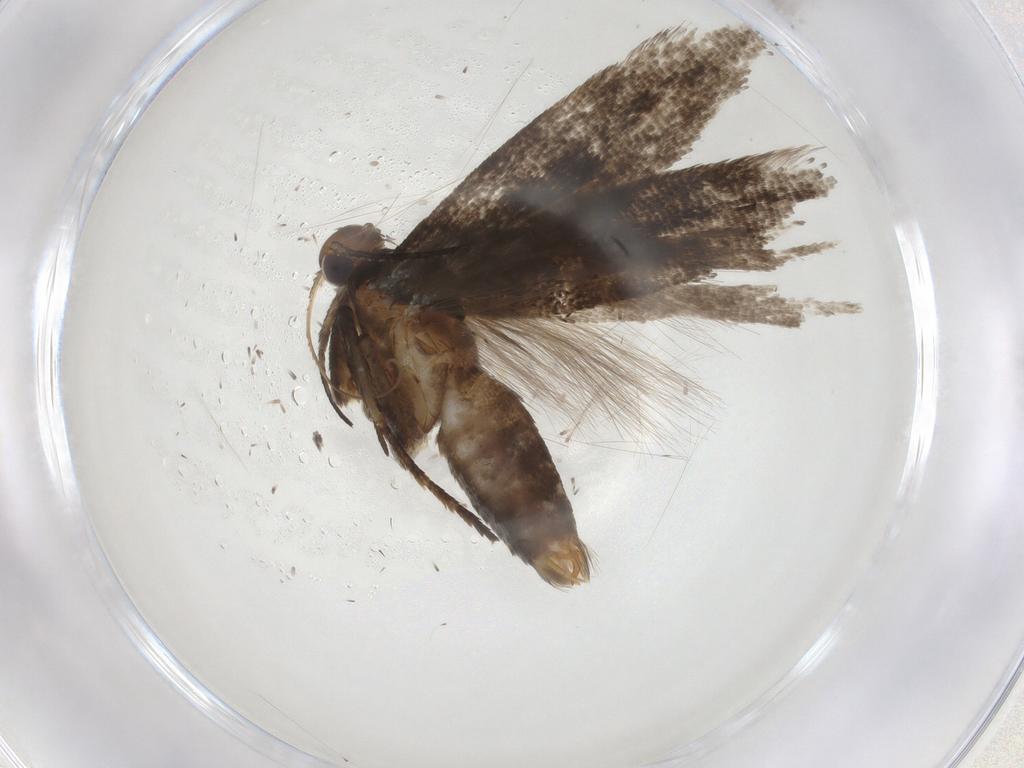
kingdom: Animalia
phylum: Arthropoda
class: Insecta
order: Lepidoptera
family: Gelechiidae
